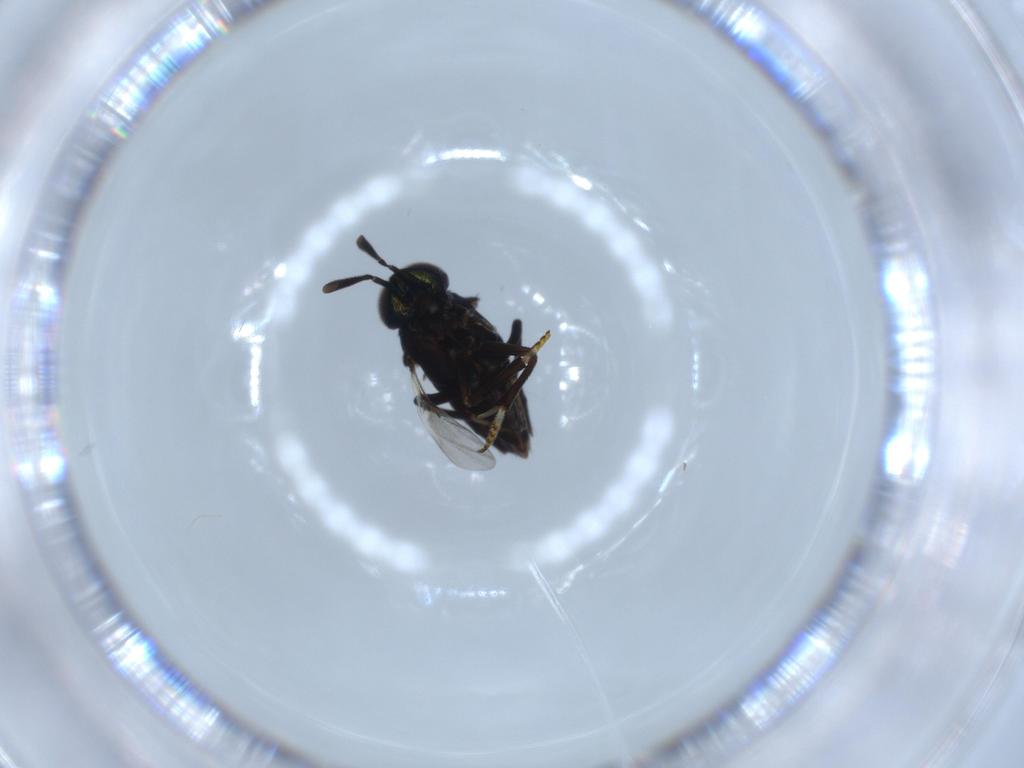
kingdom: Animalia
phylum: Arthropoda
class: Insecta
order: Hymenoptera
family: Encyrtidae
